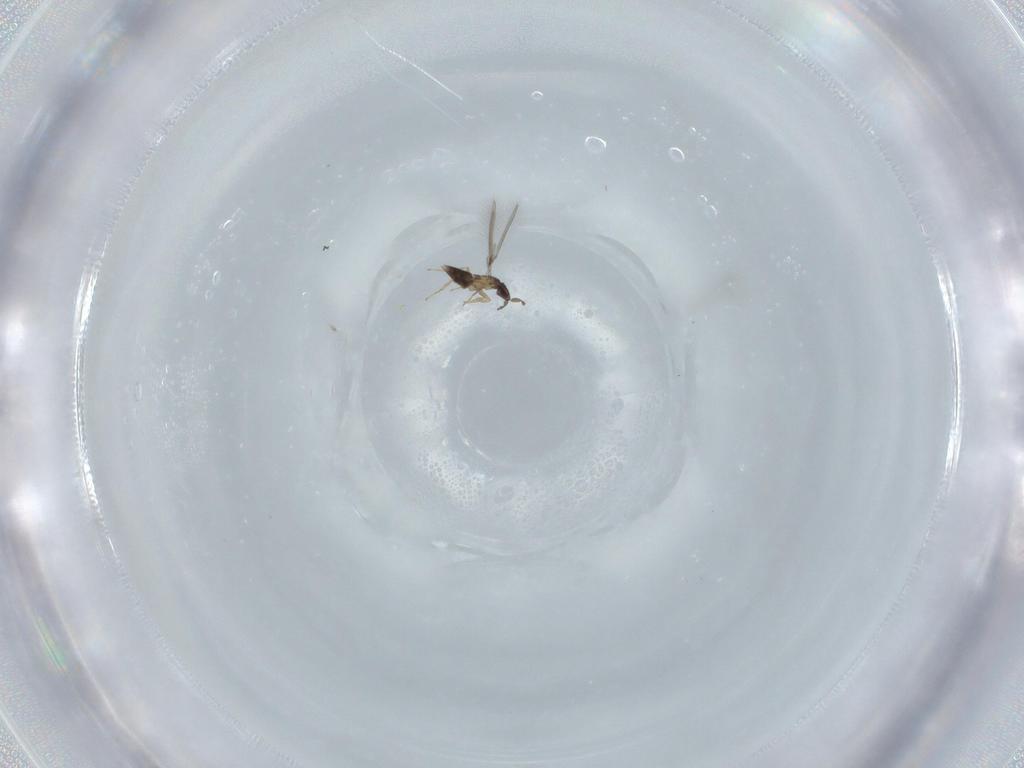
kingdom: Animalia
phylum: Arthropoda
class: Insecta
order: Hymenoptera
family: Mymaridae
